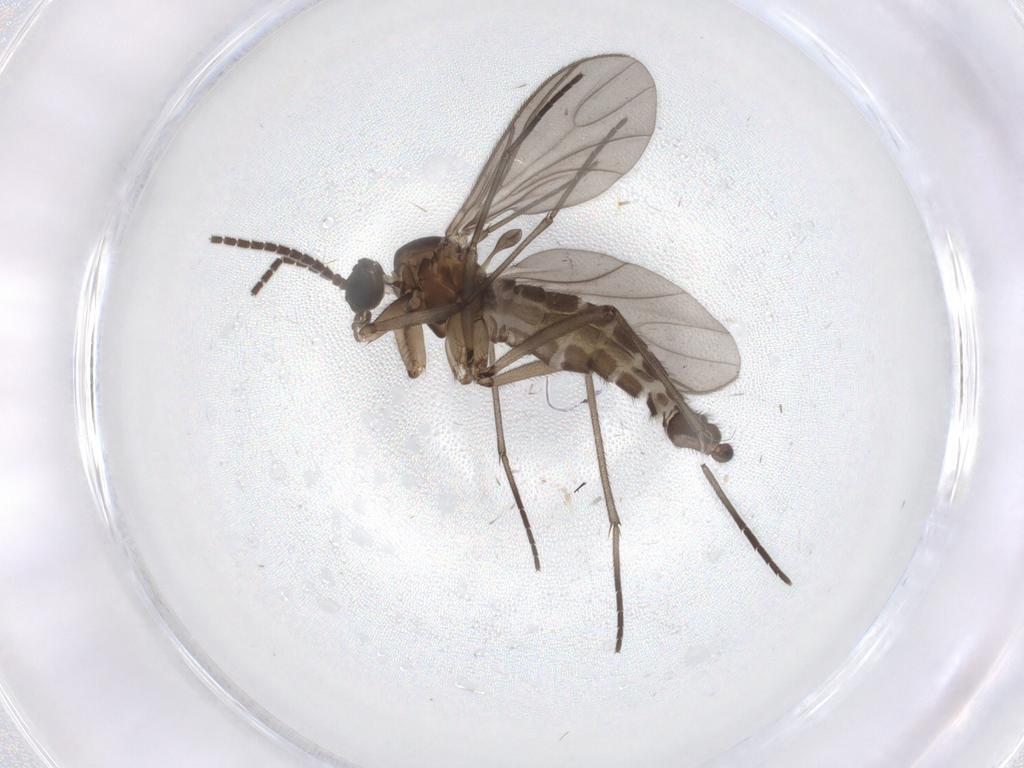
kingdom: Animalia
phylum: Arthropoda
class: Insecta
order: Diptera
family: Sciaridae
